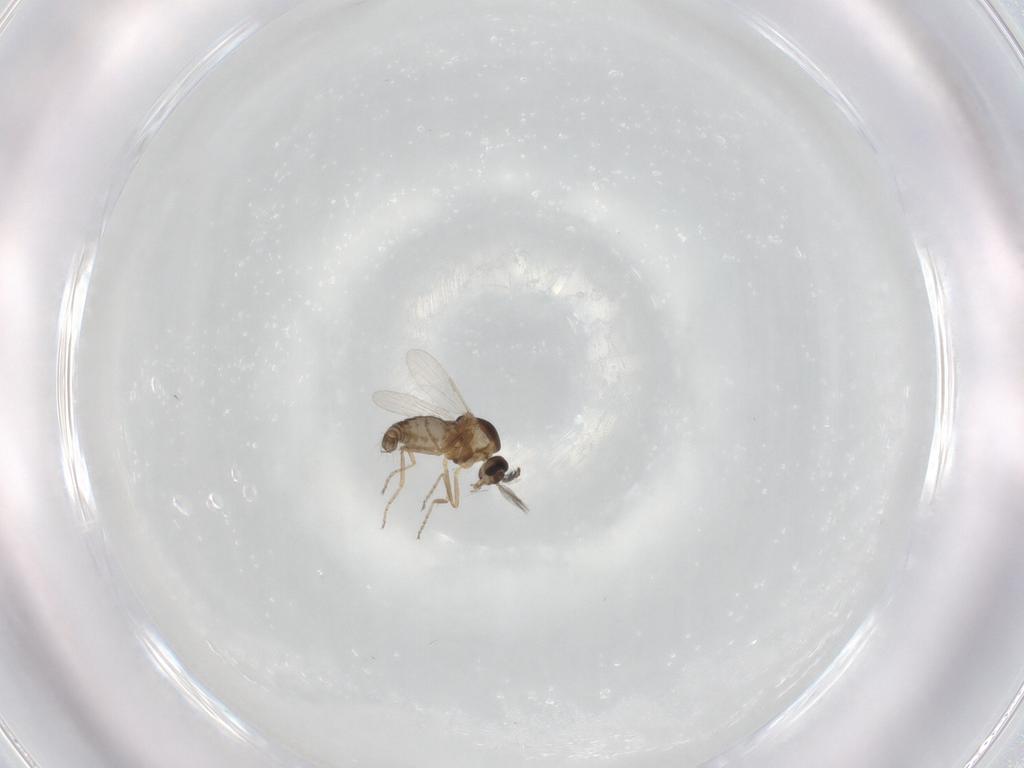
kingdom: Animalia
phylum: Arthropoda
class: Insecta
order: Diptera
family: Ceratopogonidae
